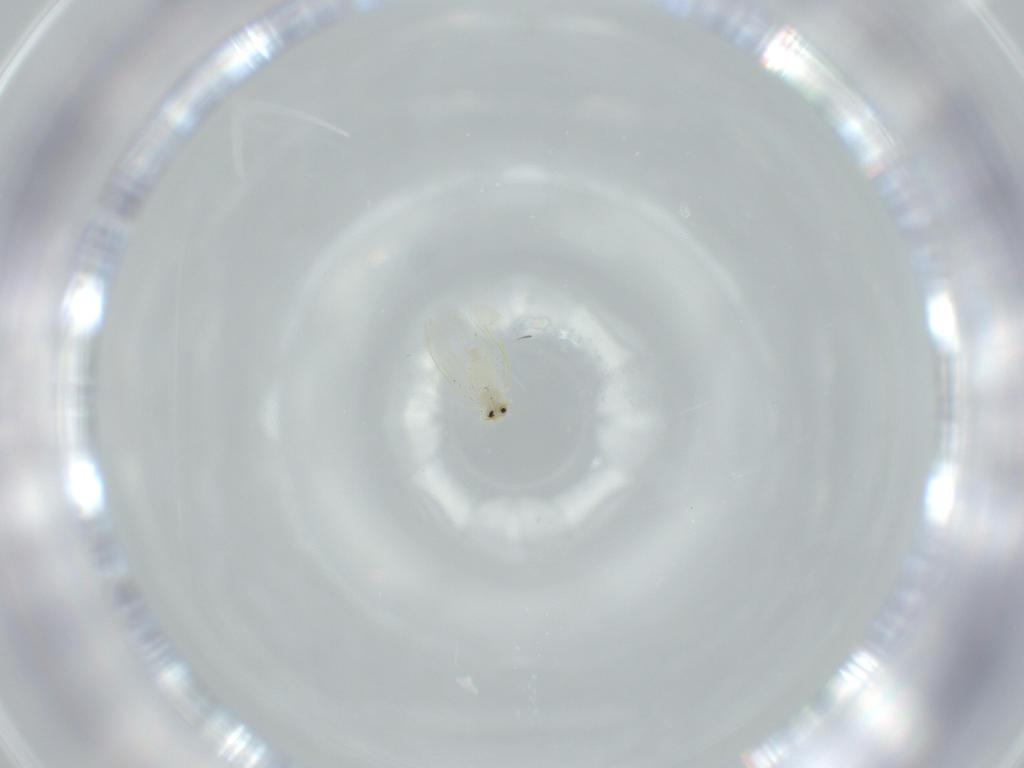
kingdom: Animalia
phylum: Arthropoda
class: Insecta
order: Hemiptera
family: Aleyrodidae
